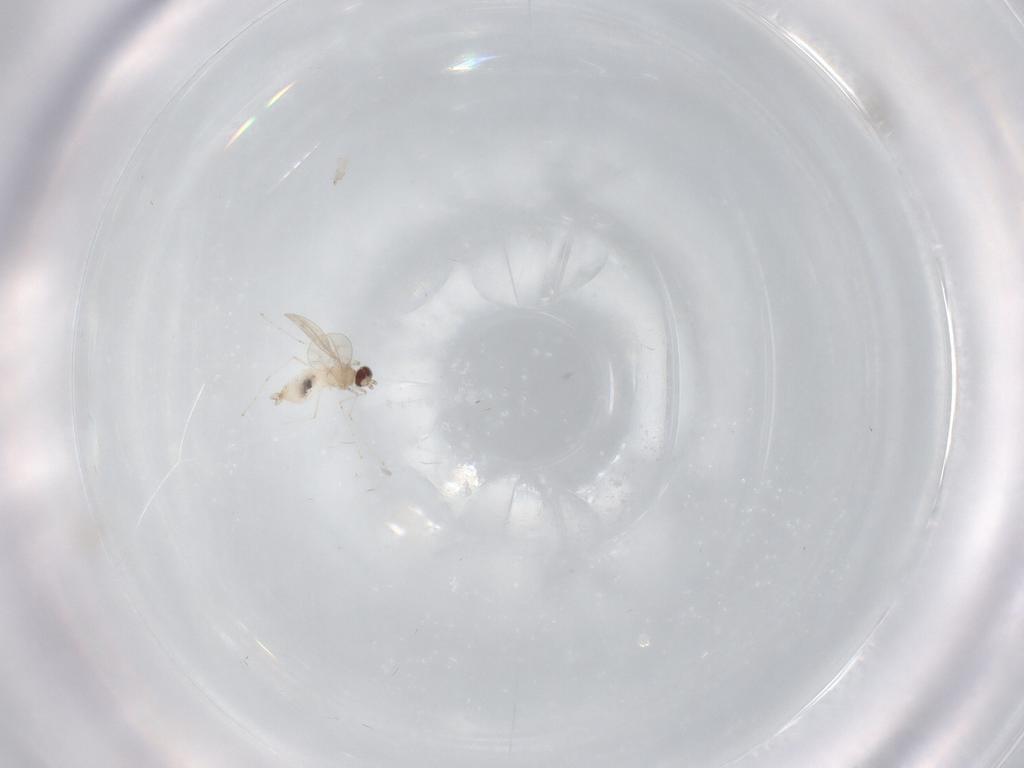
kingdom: Animalia
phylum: Arthropoda
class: Insecta
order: Diptera
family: Sciaridae
